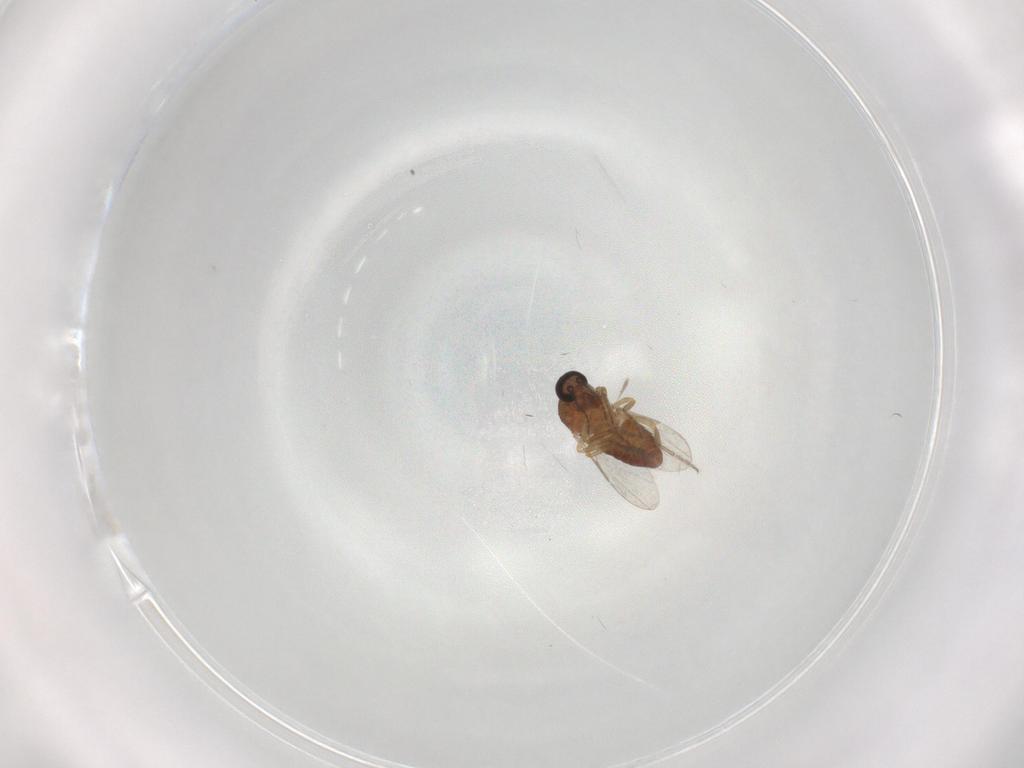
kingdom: Animalia
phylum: Arthropoda
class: Insecta
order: Diptera
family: Ceratopogonidae
